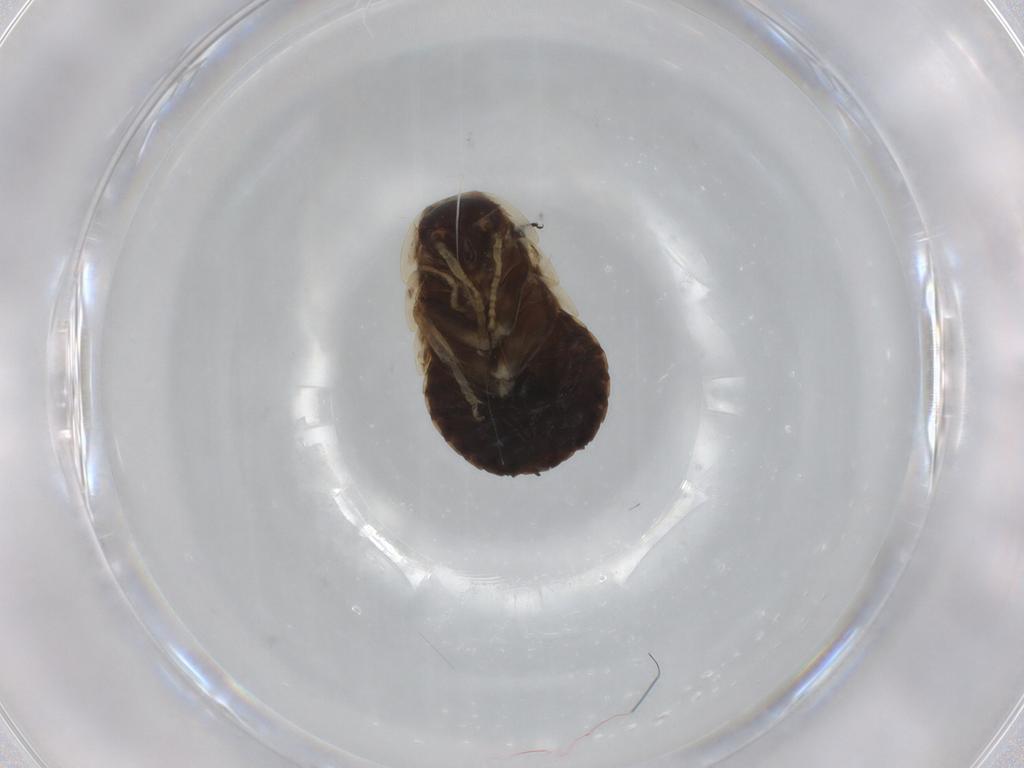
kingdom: Animalia
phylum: Arthropoda
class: Insecta
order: Blattodea
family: Ectobiidae
